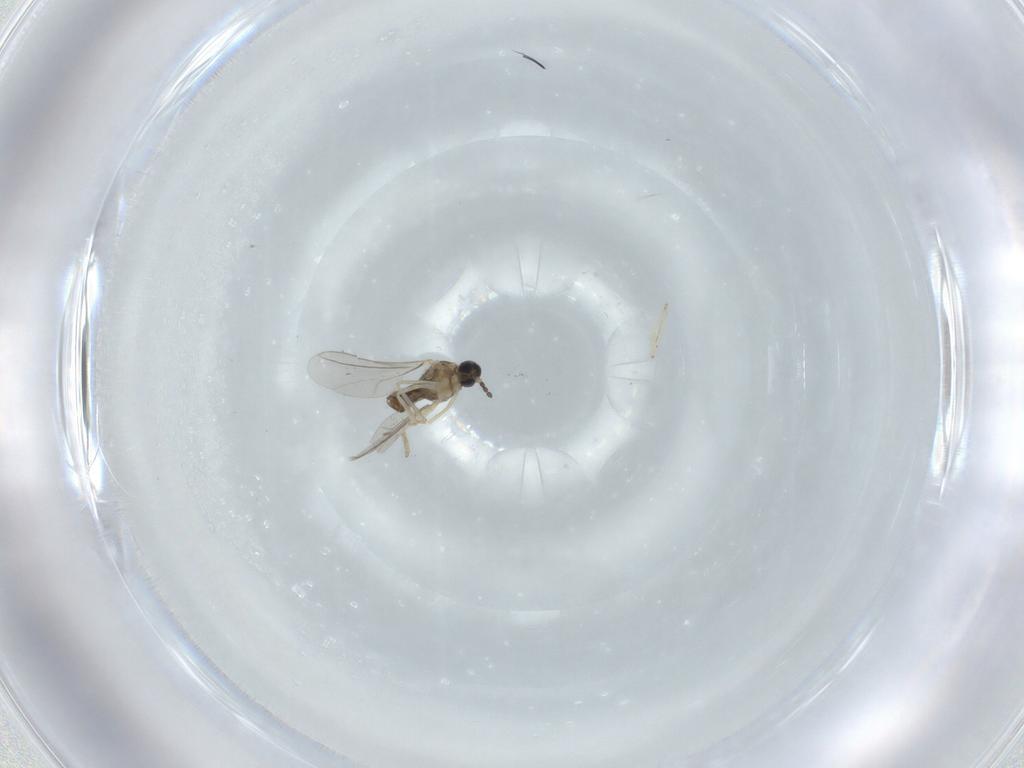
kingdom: Animalia
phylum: Arthropoda
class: Insecta
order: Diptera
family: Cecidomyiidae
